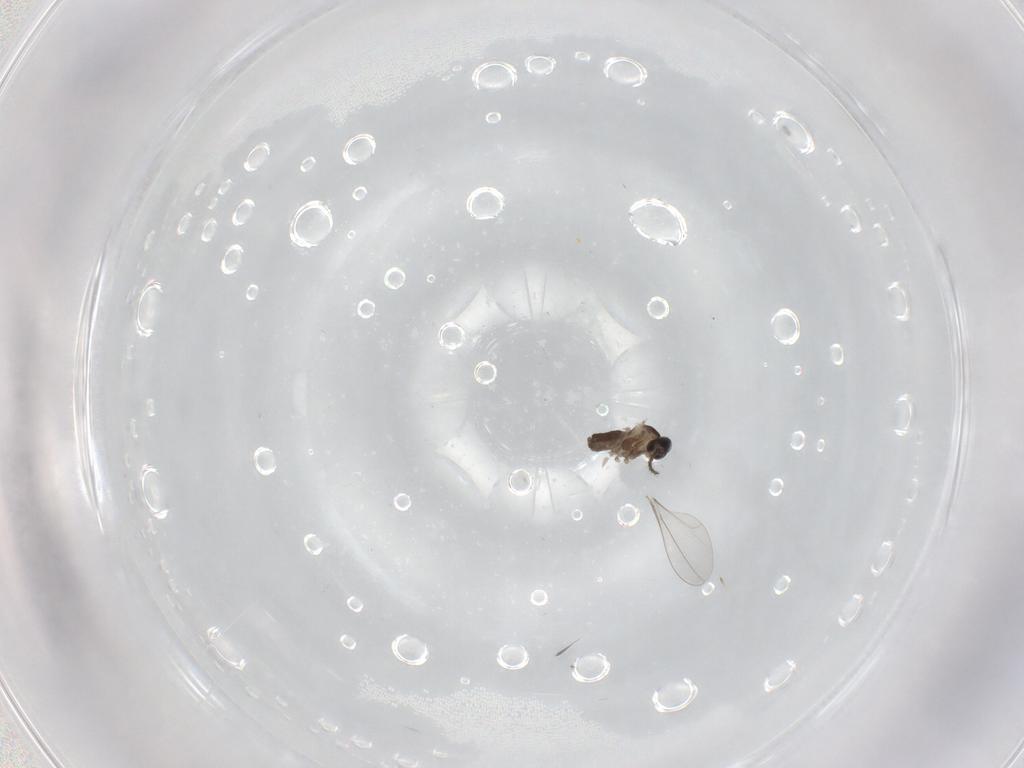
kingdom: Animalia
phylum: Arthropoda
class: Insecta
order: Diptera
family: Cecidomyiidae
